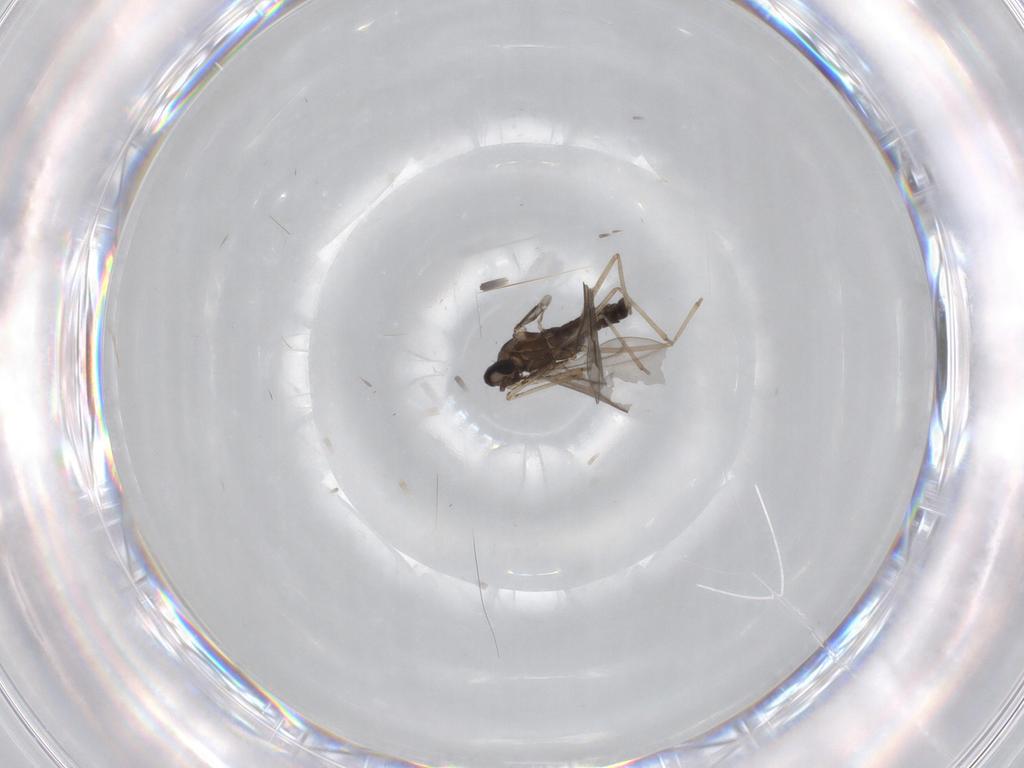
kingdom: Animalia
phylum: Arthropoda
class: Insecta
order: Diptera
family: Cecidomyiidae
